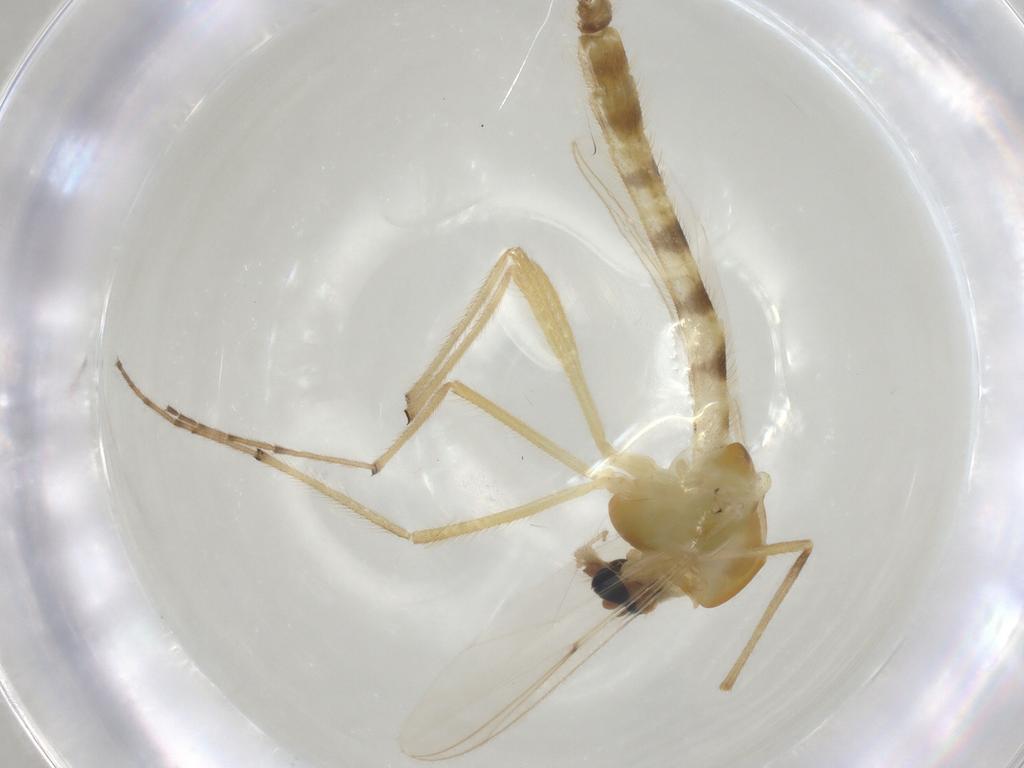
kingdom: Animalia
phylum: Arthropoda
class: Insecta
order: Diptera
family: Chironomidae
